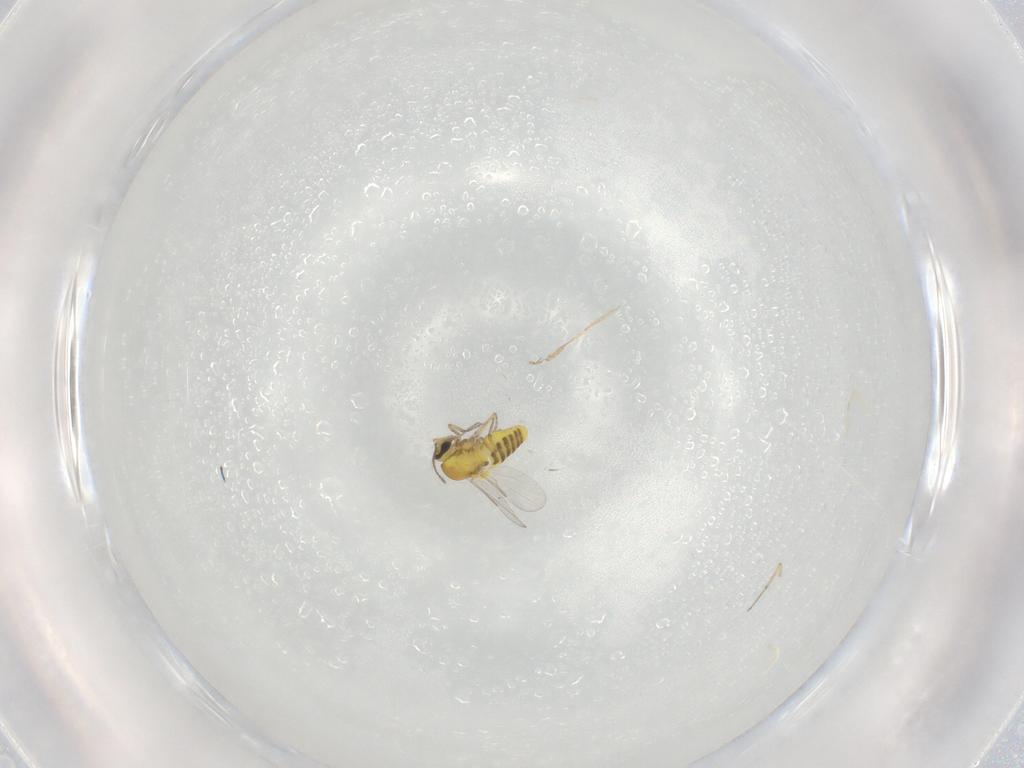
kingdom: Animalia
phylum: Arthropoda
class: Insecta
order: Diptera
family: Ceratopogonidae
